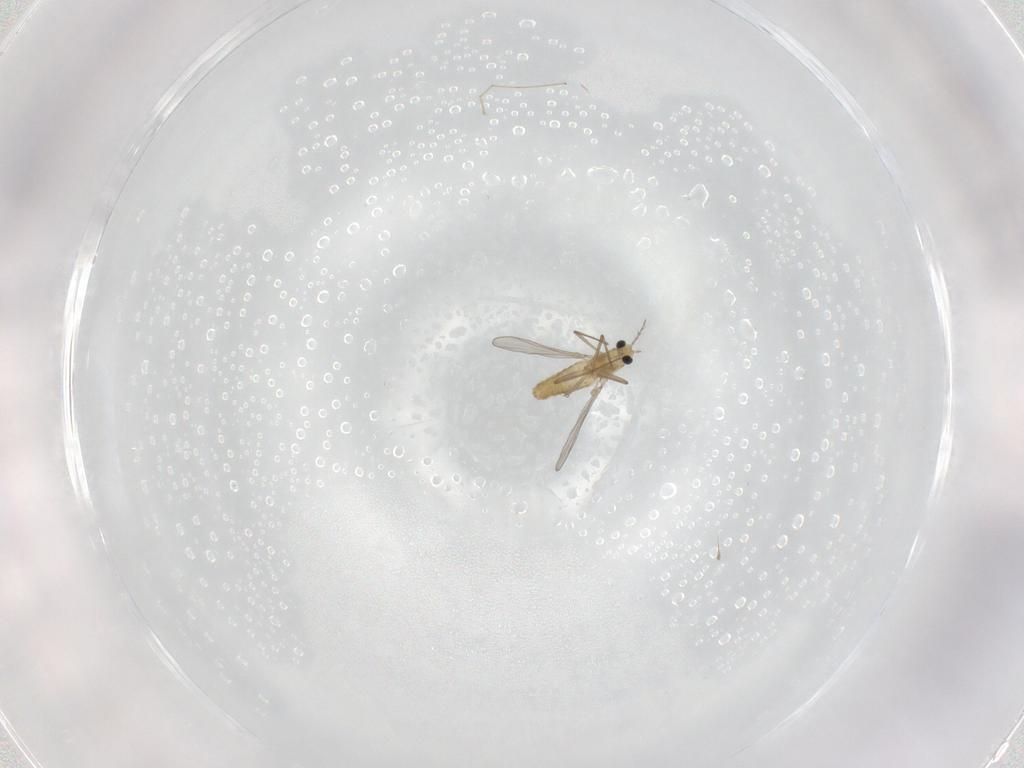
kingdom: Animalia
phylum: Arthropoda
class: Insecta
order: Diptera
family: Chironomidae
